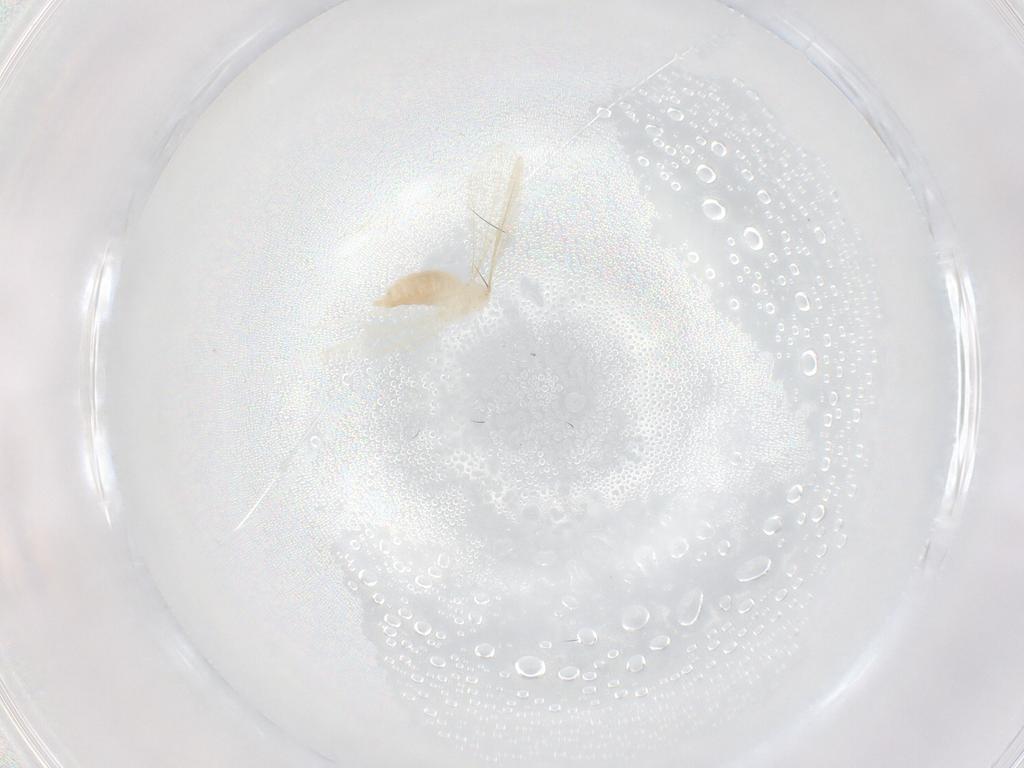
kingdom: Animalia
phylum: Arthropoda
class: Insecta
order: Diptera
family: Cecidomyiidae
